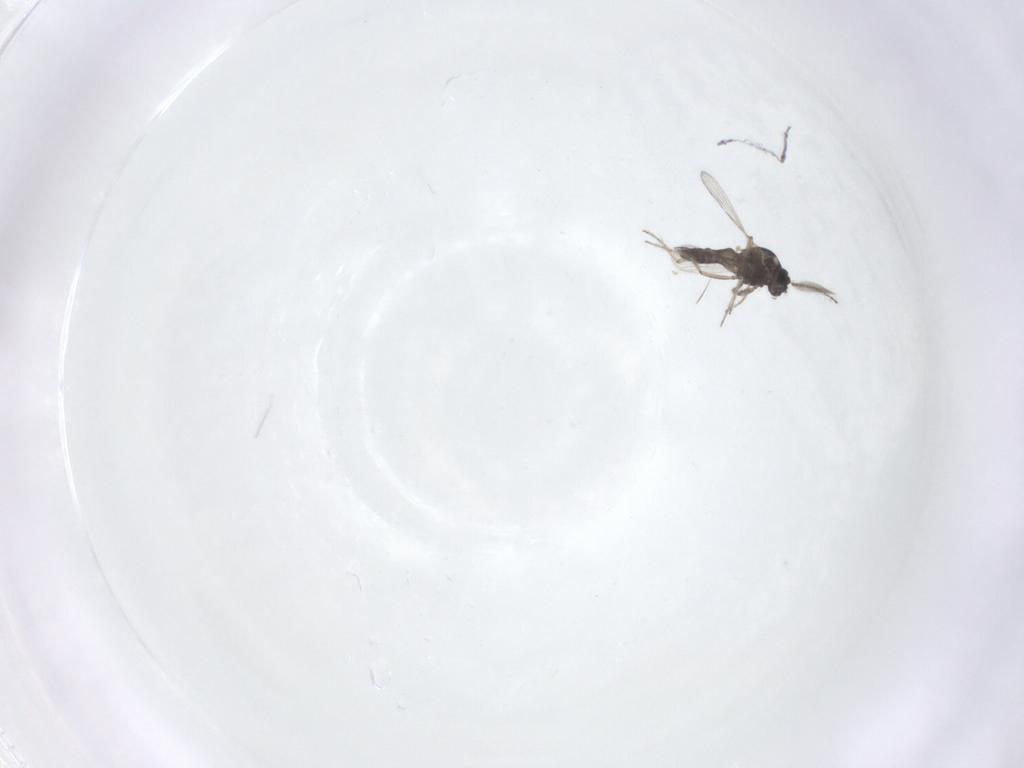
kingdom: Animalia
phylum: Arthropoda
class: Insecta
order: Diptera
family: Ceratopogonidae
